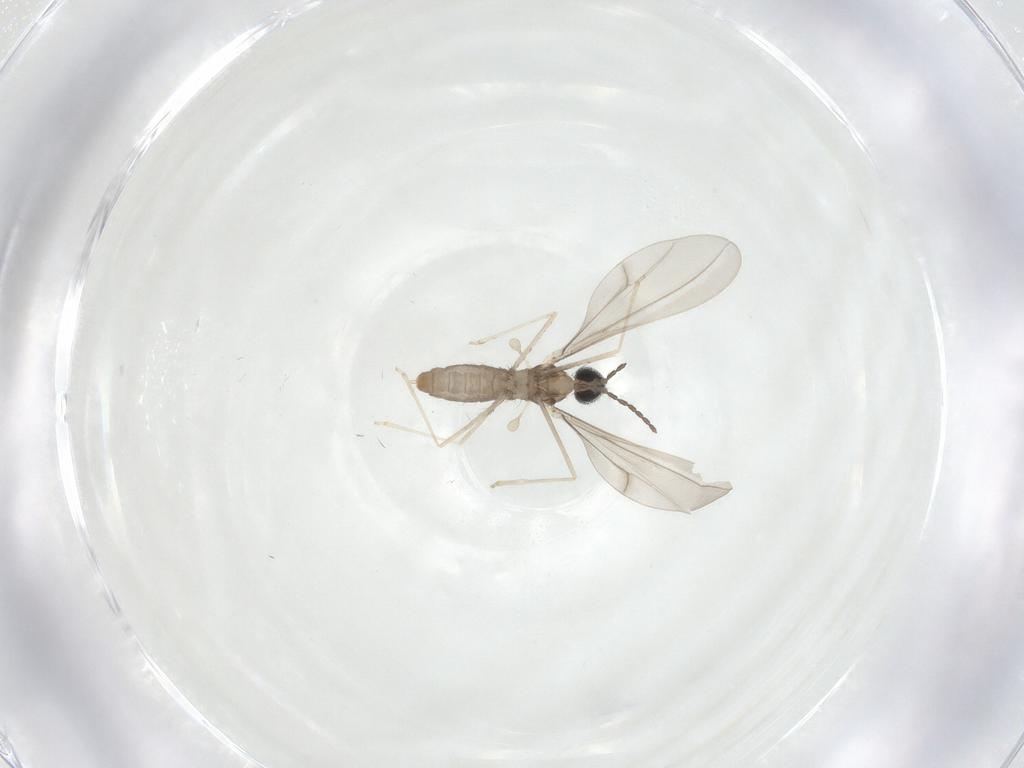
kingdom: Animalia
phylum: Arthropoda
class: Insecta
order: Diptera
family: Cecidomyiidae
